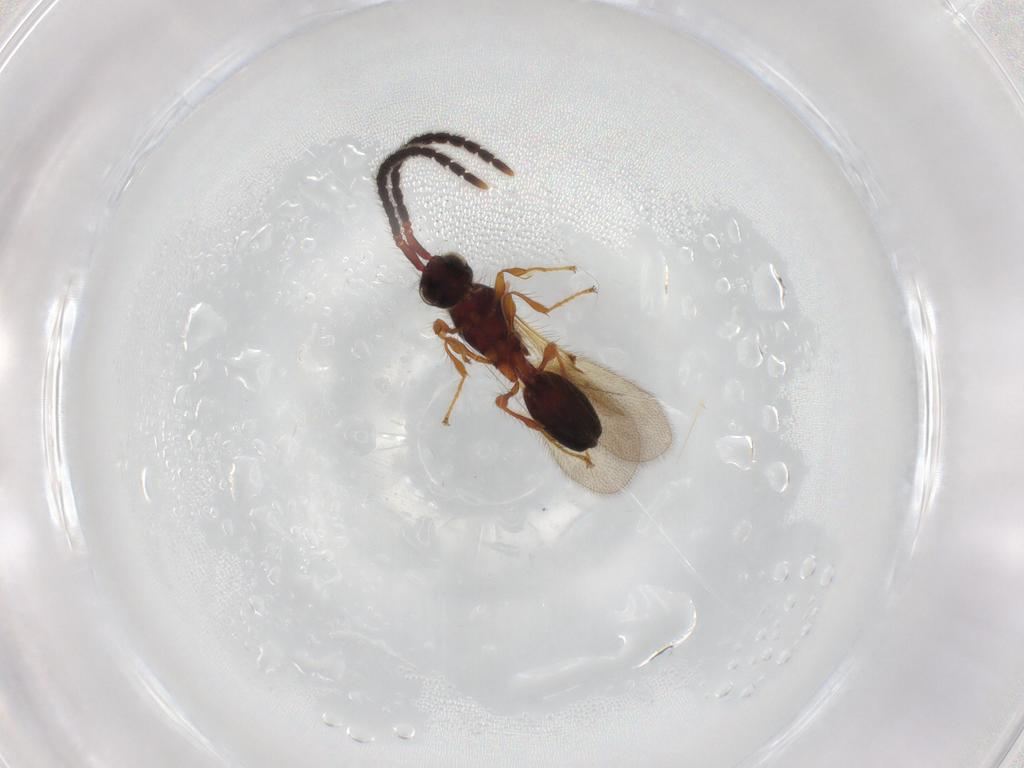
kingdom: Animalia
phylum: Arthropoda
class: Insecta
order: Hymenoptera
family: Diapriidae
